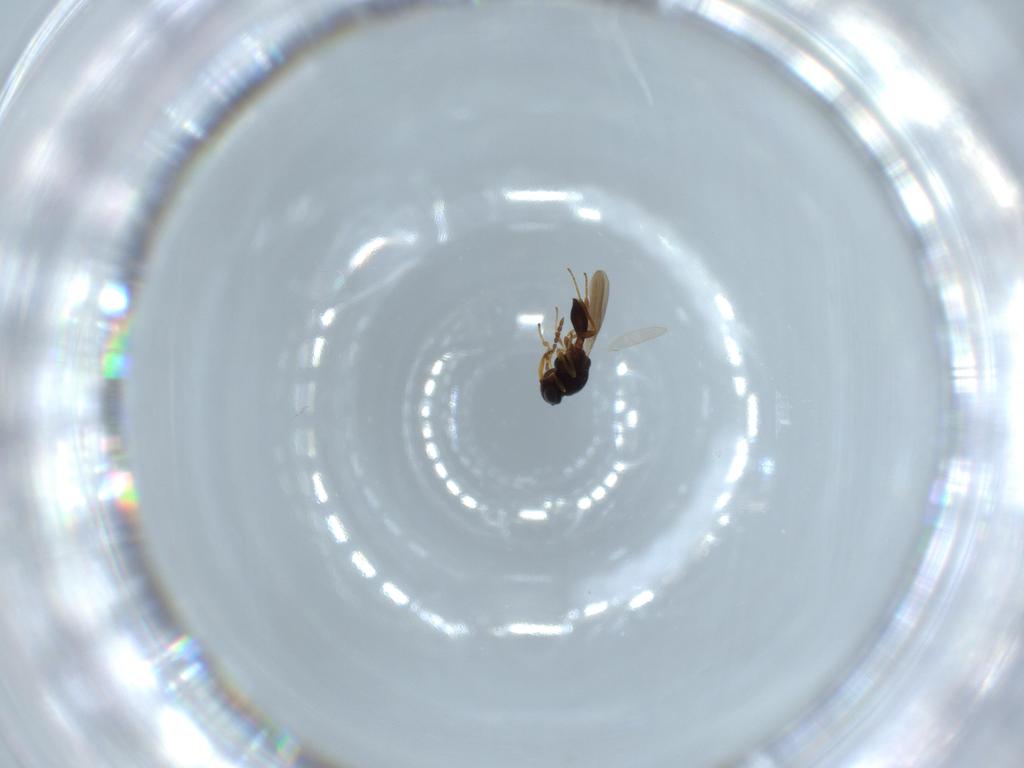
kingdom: Animalia
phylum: Arthropoda
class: Insecta
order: Hymenoptera
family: Platygastridae
